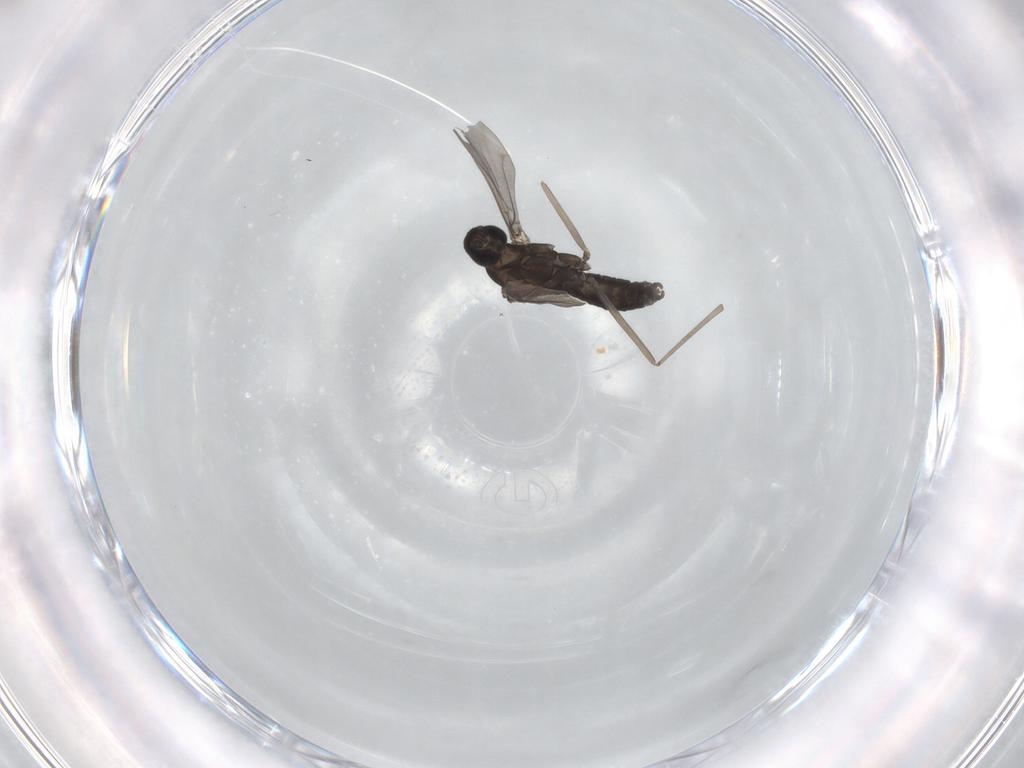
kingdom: Animalia
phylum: Arthropoda
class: Insecta
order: Diptera
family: Cecidomyiidae
